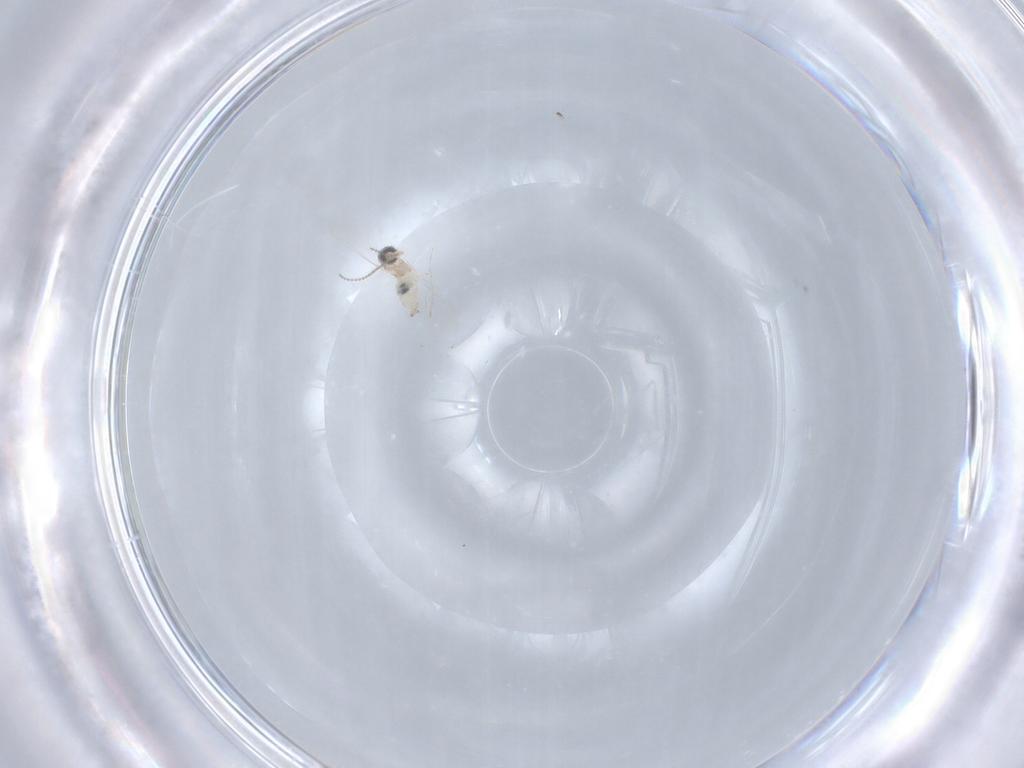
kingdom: Animalia
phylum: Arthropoda
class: Insecta
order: Diptera
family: Cecidomyiidae
